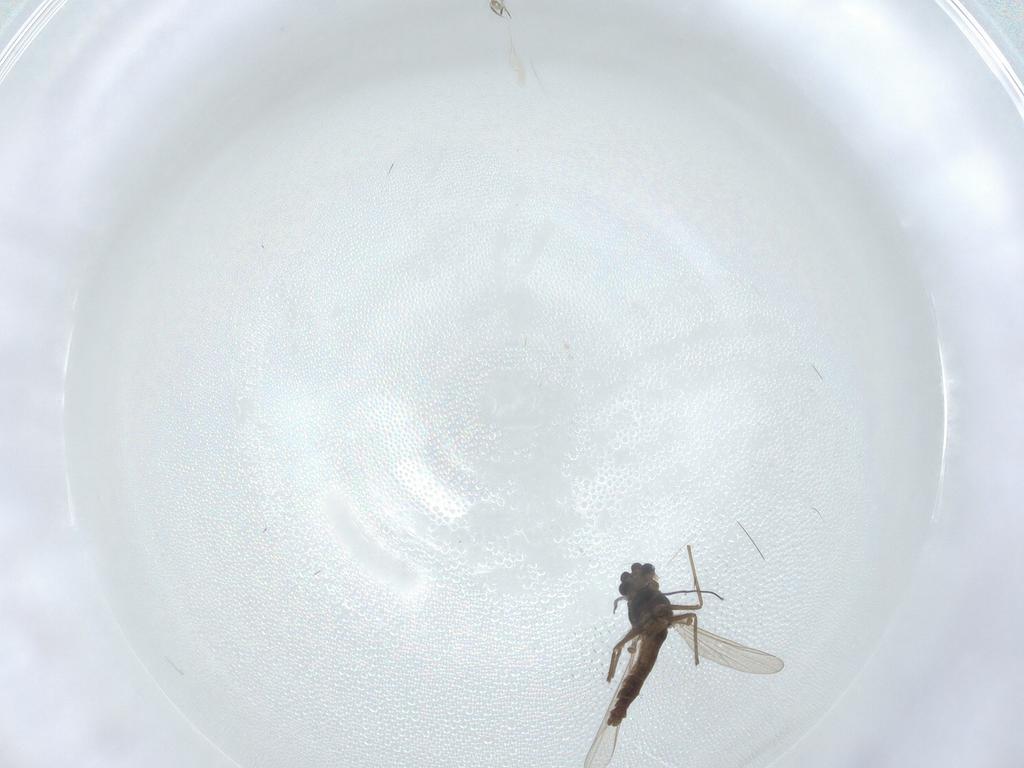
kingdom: Animalia
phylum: Arthropoda
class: Insecta
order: Diptera
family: Chironomidae
